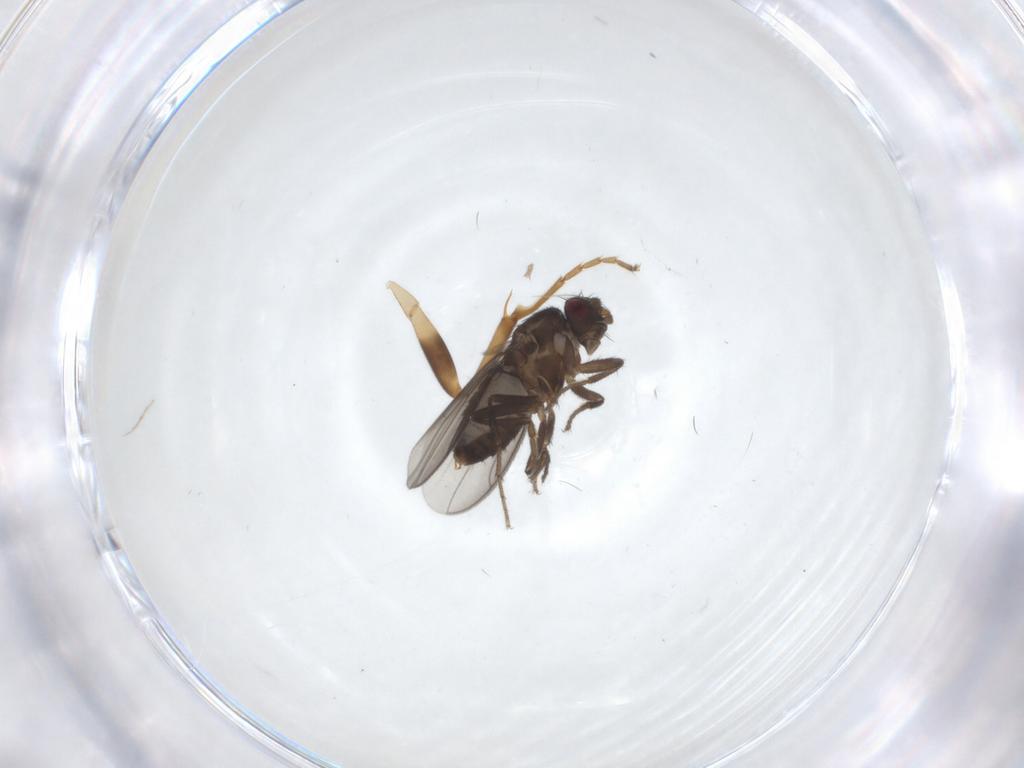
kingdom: Animalia
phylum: Arthropoda
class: Insecta
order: Diptera
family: Sphaeroceridae
